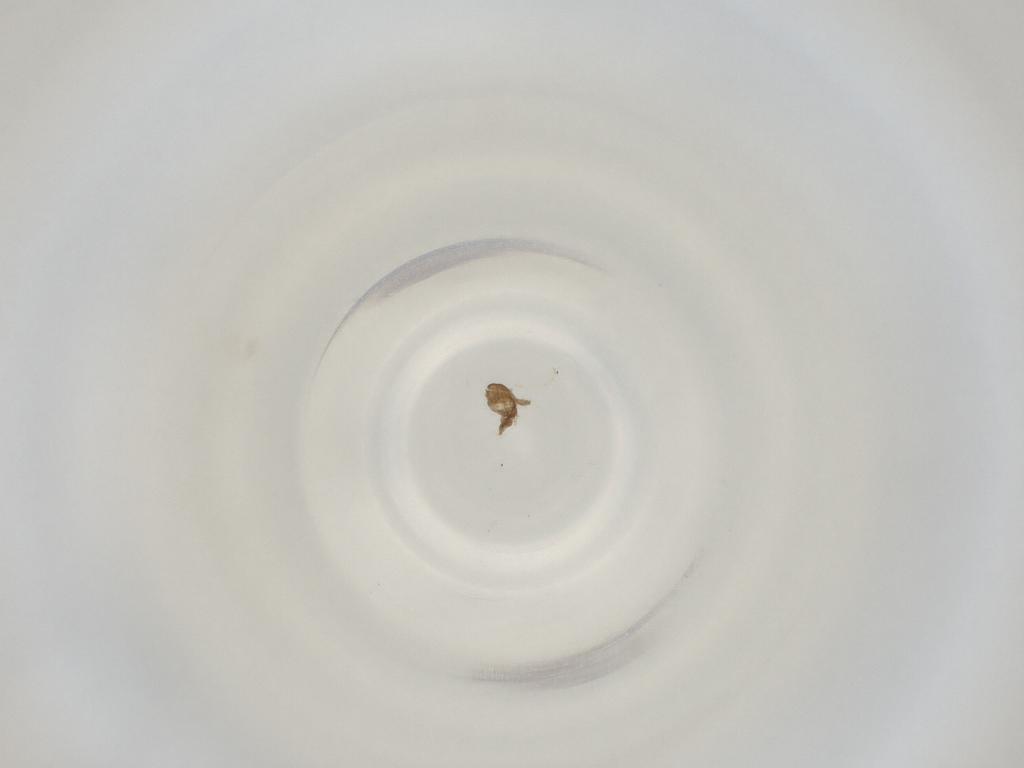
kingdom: Animalia
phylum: Arthropoda
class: Insecta
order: Diptera
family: Cecidomyiidae
